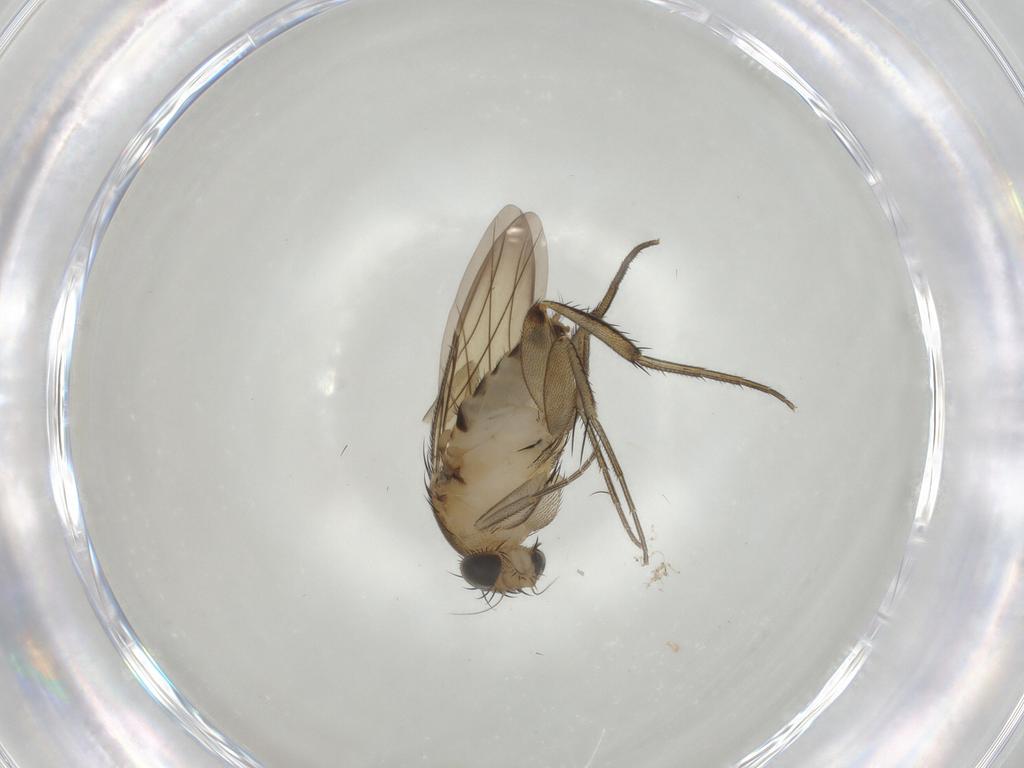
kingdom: Animalia
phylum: Arthropoda
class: Insecta
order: Diptera
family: Phoridae
